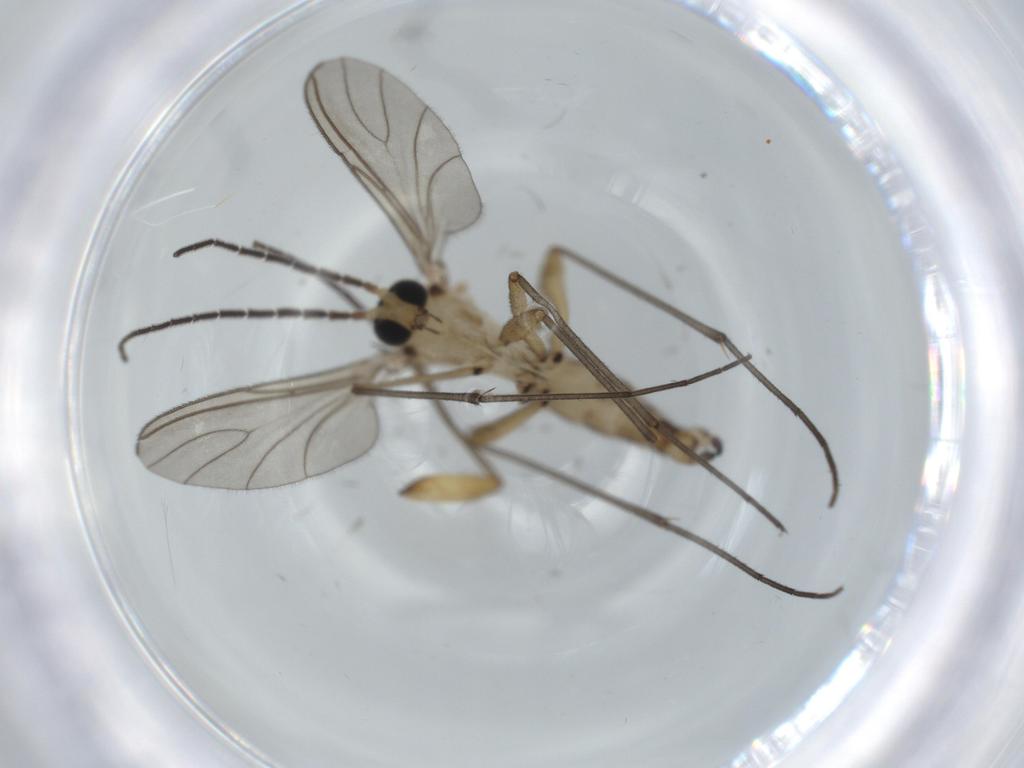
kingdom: Animalia
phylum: Arthropoda
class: Insecta
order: Diptera
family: Sciaridae
